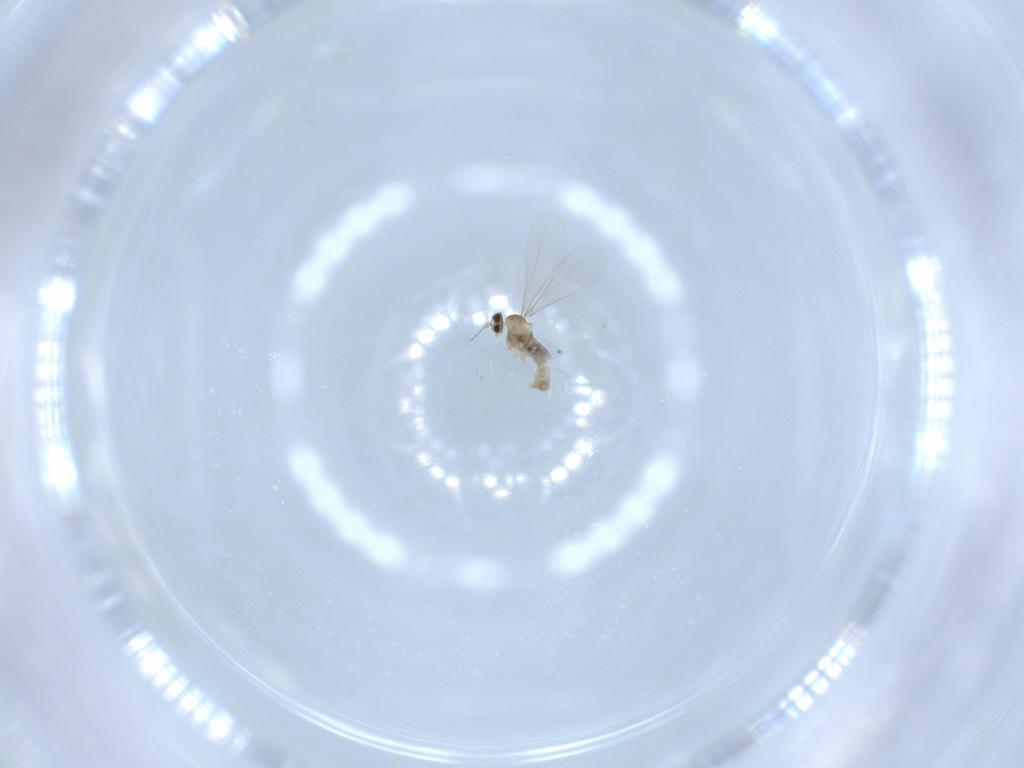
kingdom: Animalia
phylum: Arthropoda
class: Insecta
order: Diptera
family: Cecidomyiidae
